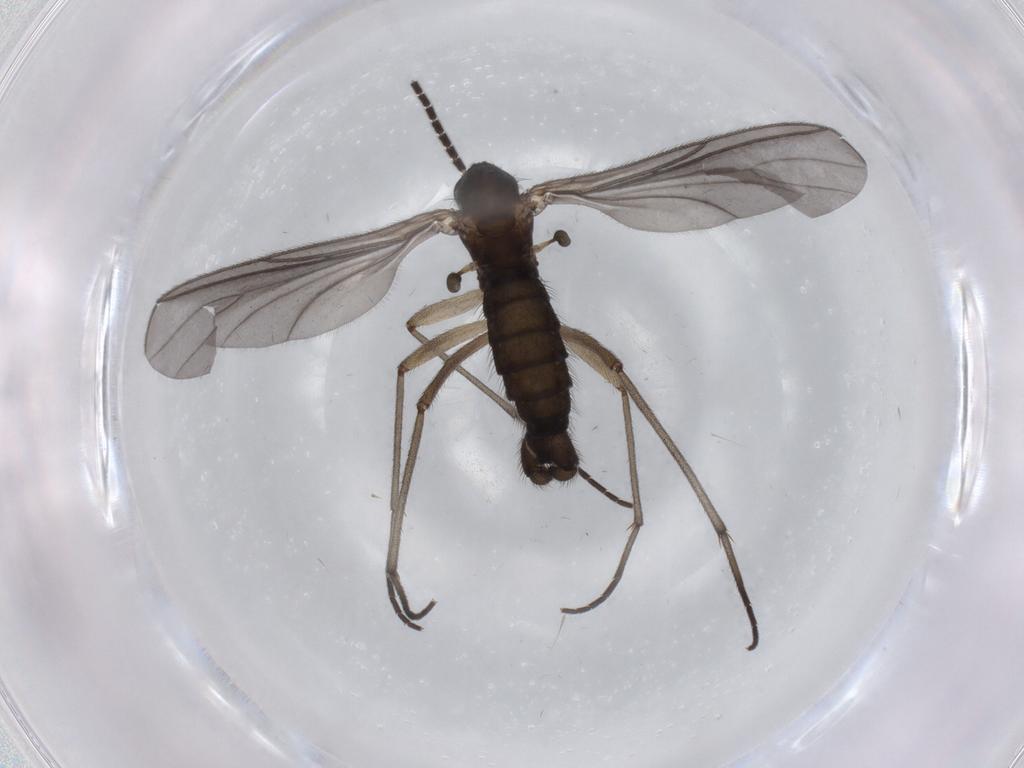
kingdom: Animalia
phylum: Arthropoda
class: Insecta
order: Diptera
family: Sciaridae
